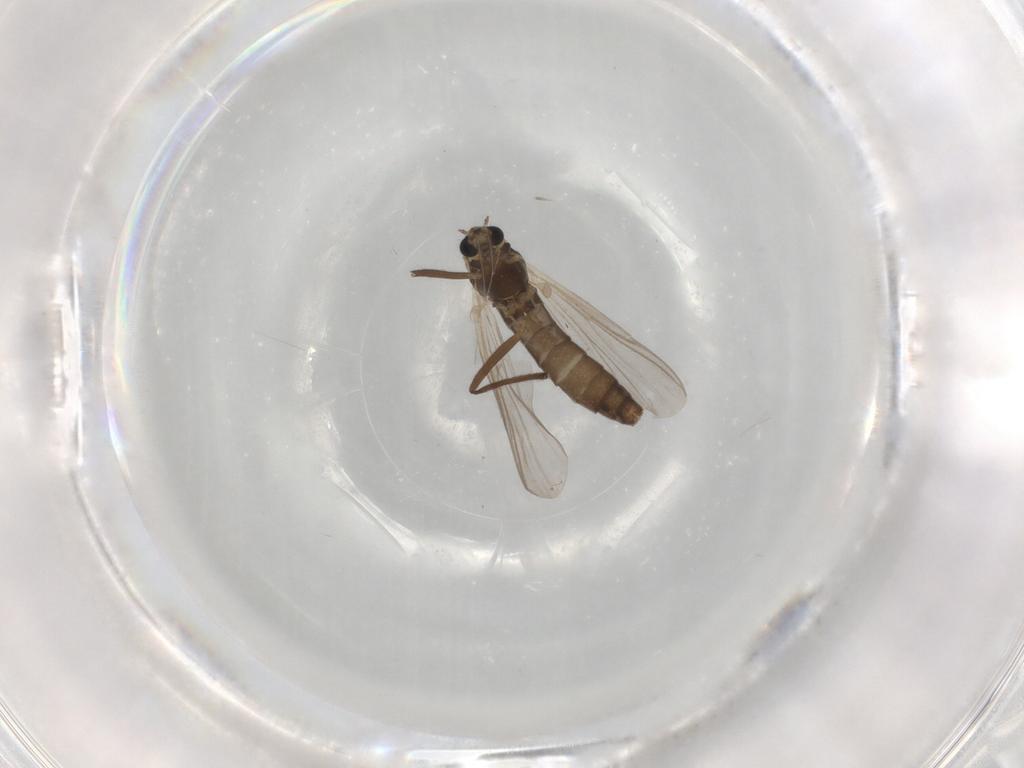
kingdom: Animalia
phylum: Arthropoda
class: Insecta
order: Diptera
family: Chironomidae
